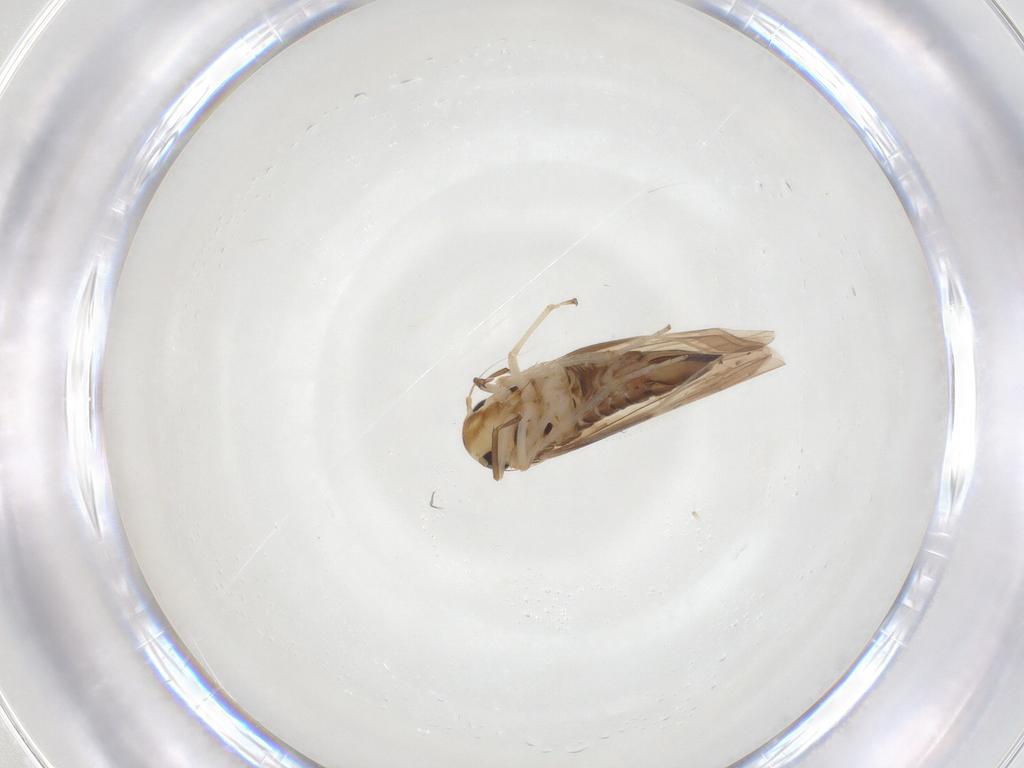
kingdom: Animalia
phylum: Arthropoda
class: Insecta
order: Hemiptera
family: Cicadellidae
